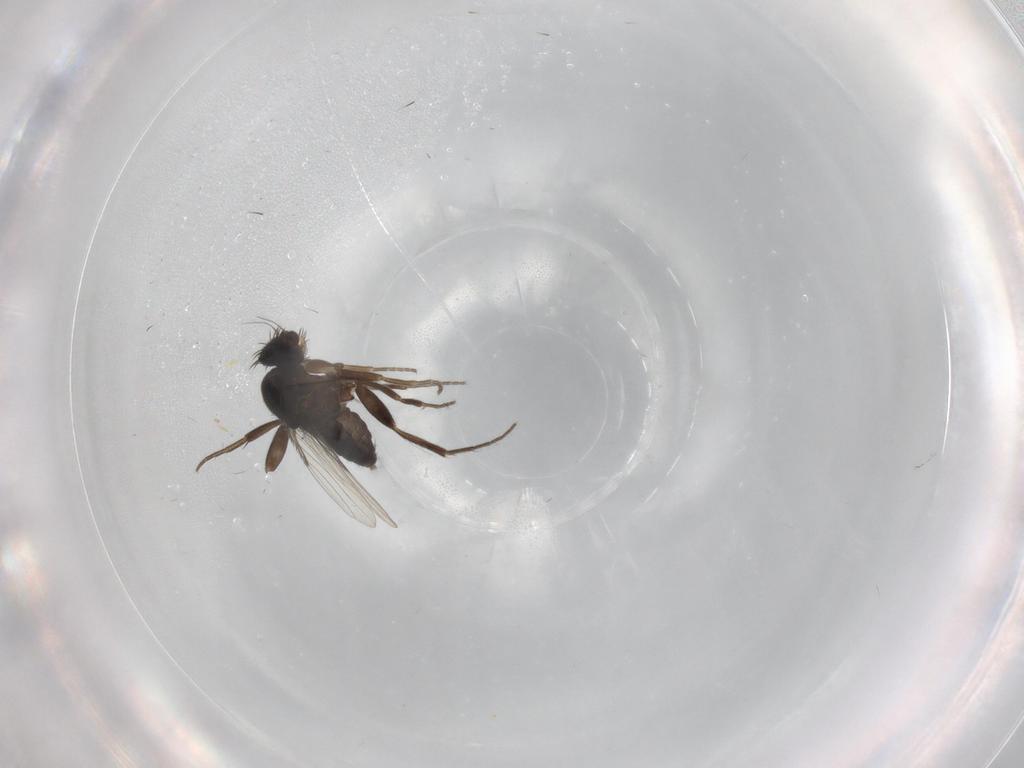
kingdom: Animalia
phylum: Arthropoda
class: Insecta
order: Diptera
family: Phoridae
